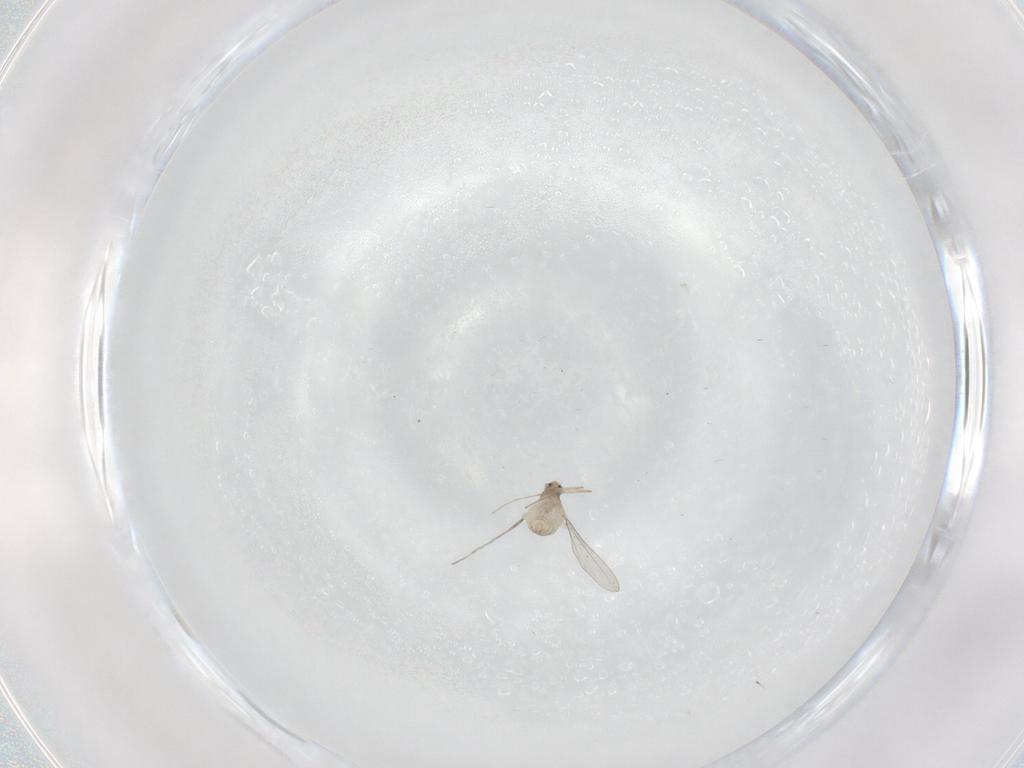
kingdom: Animalia
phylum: Arthropoda
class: Insecta
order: Diptera
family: Cecidomyiidae
